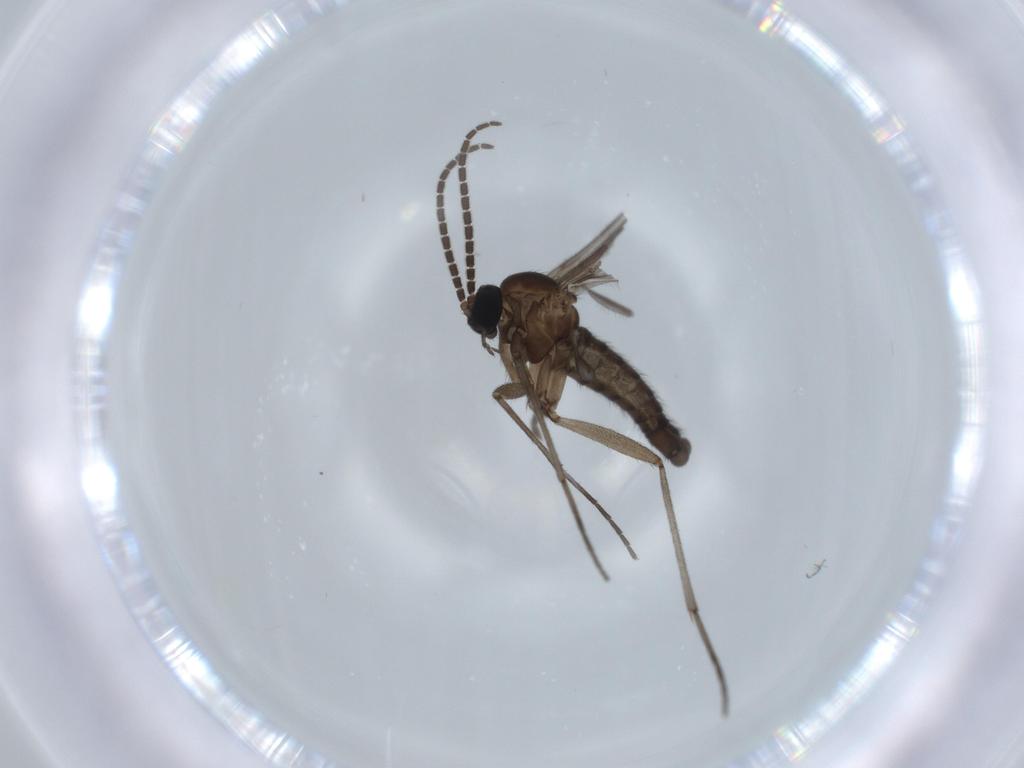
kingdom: Animalia
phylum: Arthropoda
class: Insecta
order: Diptera
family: Sciaridae
